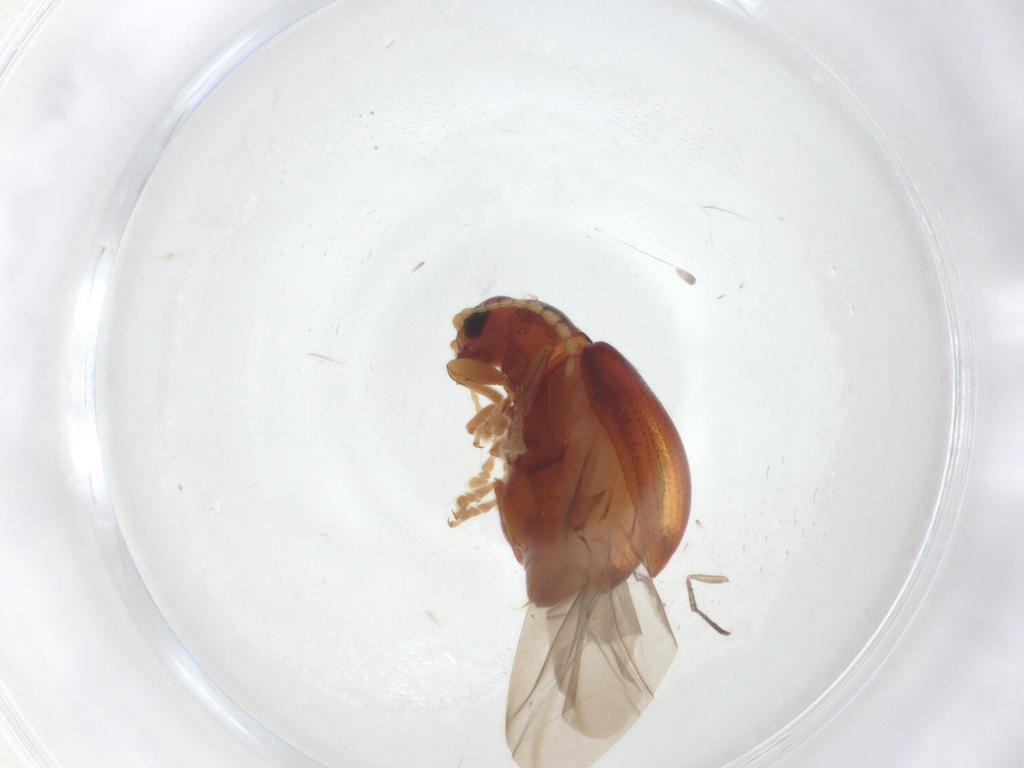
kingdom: Animalia
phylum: Arthropoda
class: Insecta
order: Coleoptera
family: Chrysomelidae
